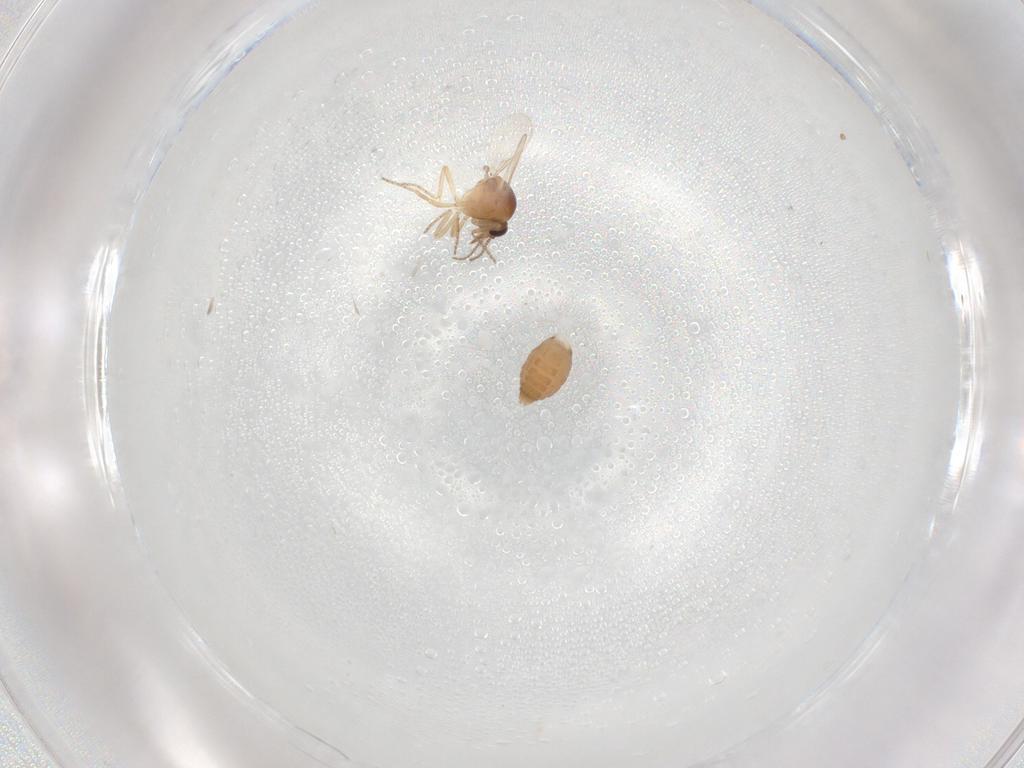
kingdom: Animalia
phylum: Arthropoda
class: Insecta
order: Diptera
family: Ceratopogonidae
